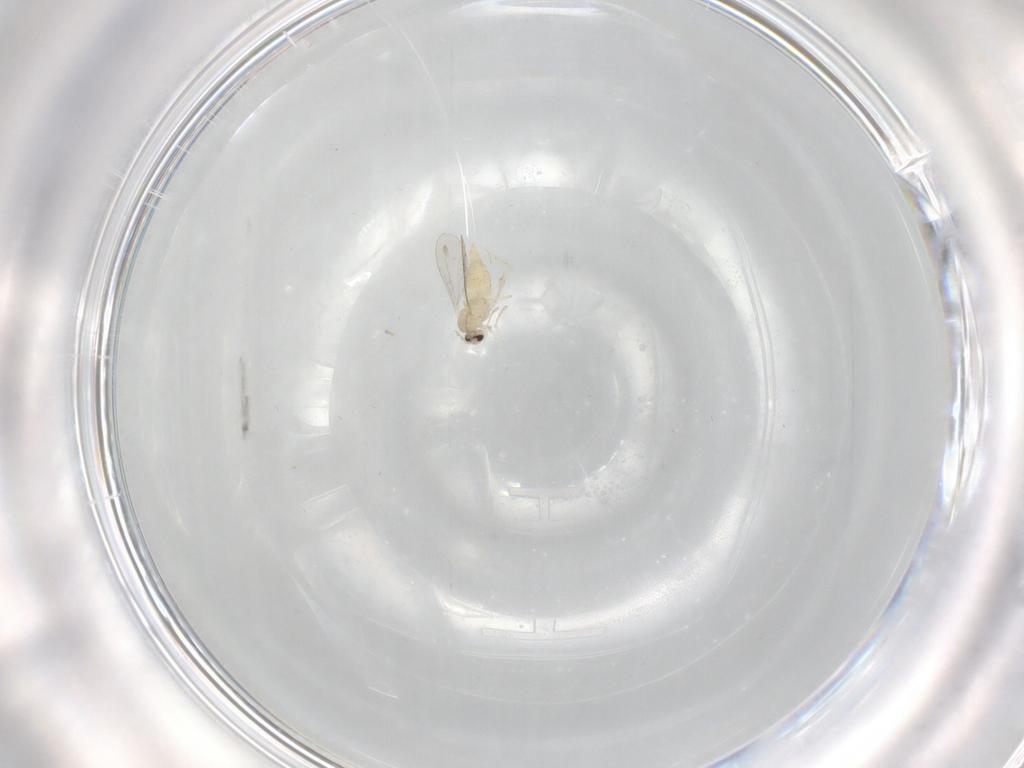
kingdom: Animalia
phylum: Arthropoda
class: Insecta
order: Diptera
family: Cecidomyiidae
